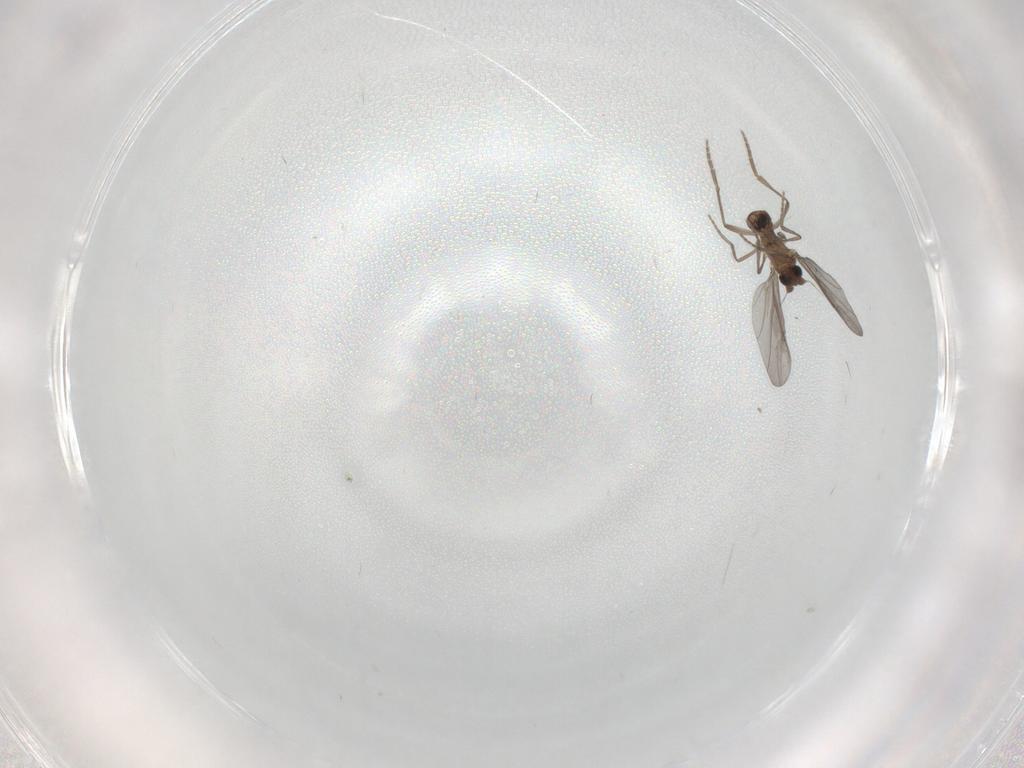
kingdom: Animalia
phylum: Arthropoda
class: Insecta
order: Diptera
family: Phoridae
